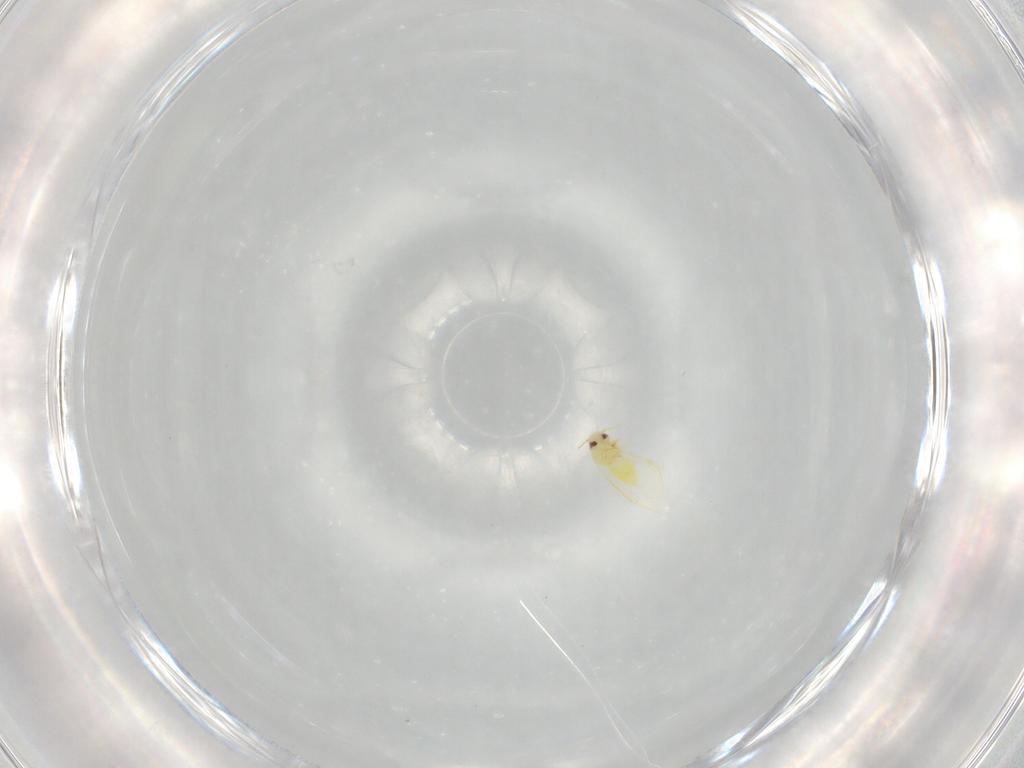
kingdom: Animalia
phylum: Arthropoda
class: Insecta
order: Hemiptera
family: Aleyrodidae
